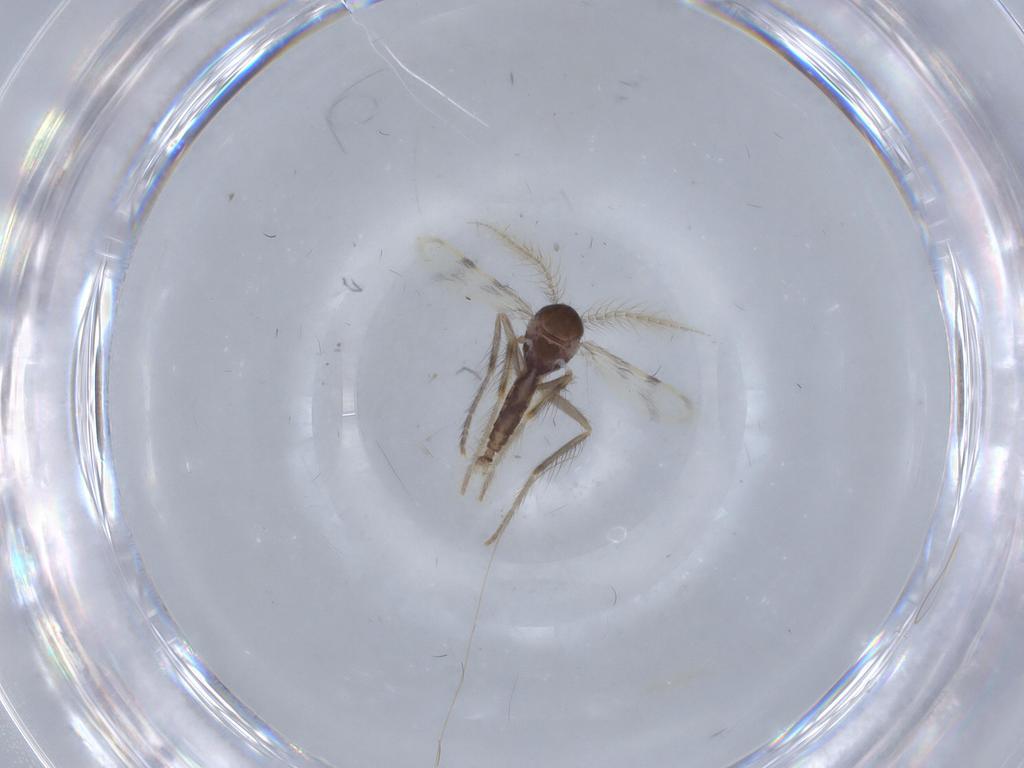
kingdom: Animalia
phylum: Arthropoda
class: Insecta
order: Diptera
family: Corethrellidae
